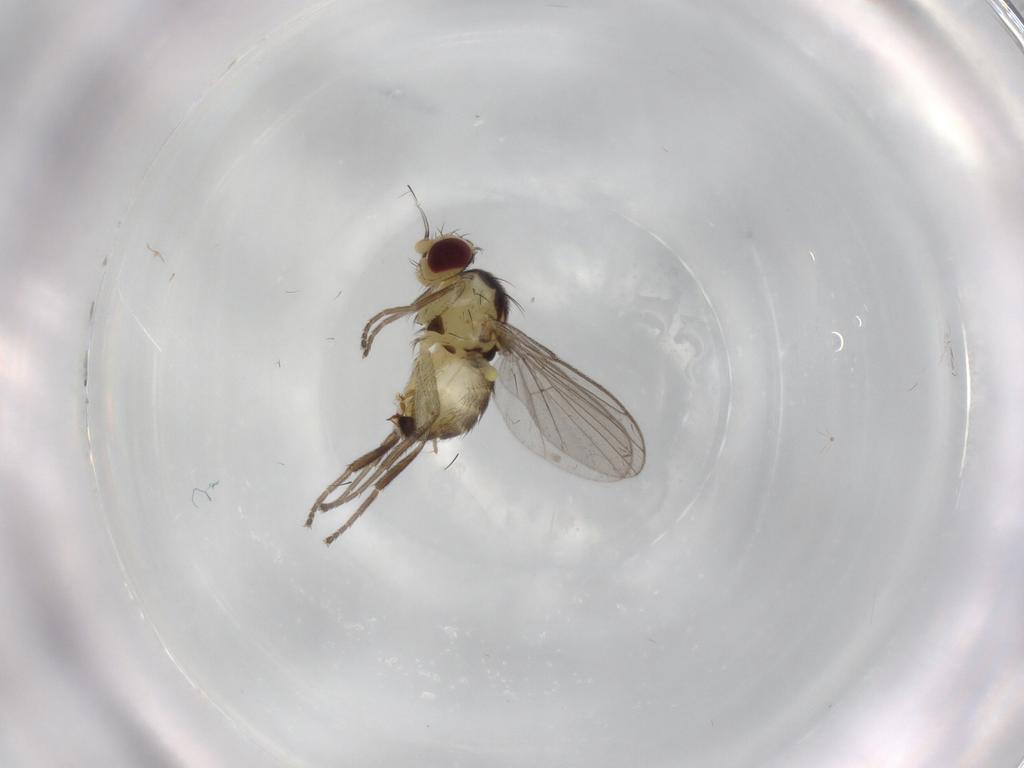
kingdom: Animalia
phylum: Arthropoda
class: Insecta
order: Diptera
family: Agromyzidae
